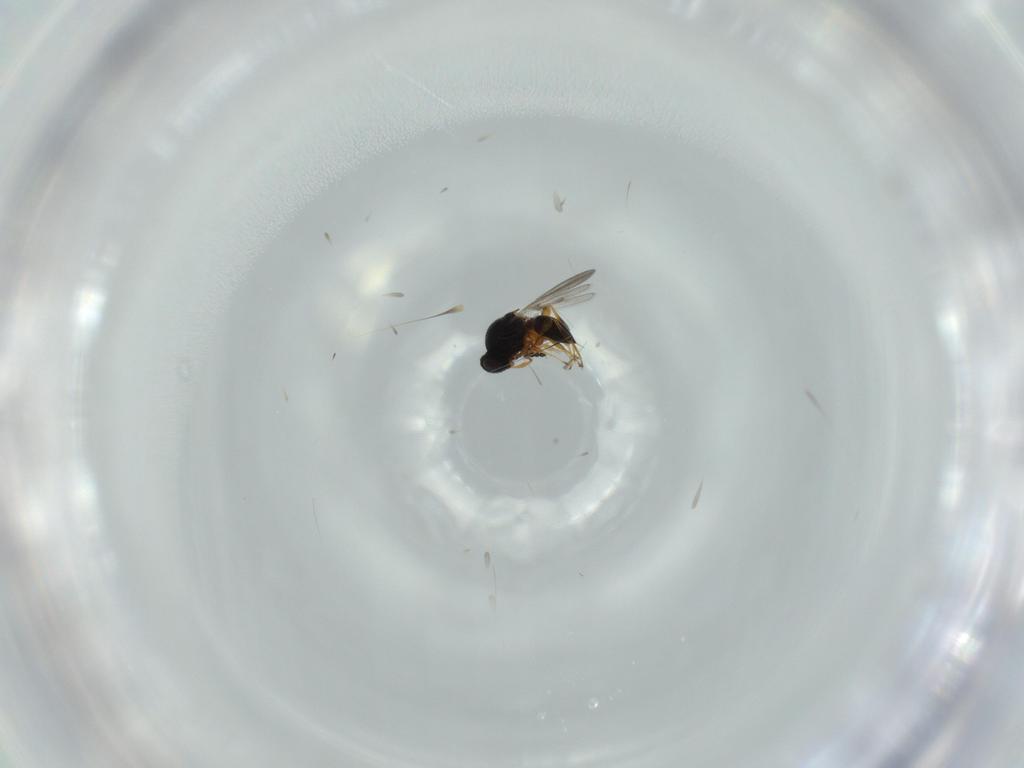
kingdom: Animalia
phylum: Arthropoda
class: Insecta
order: Hymenoptera
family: Platygastridae
